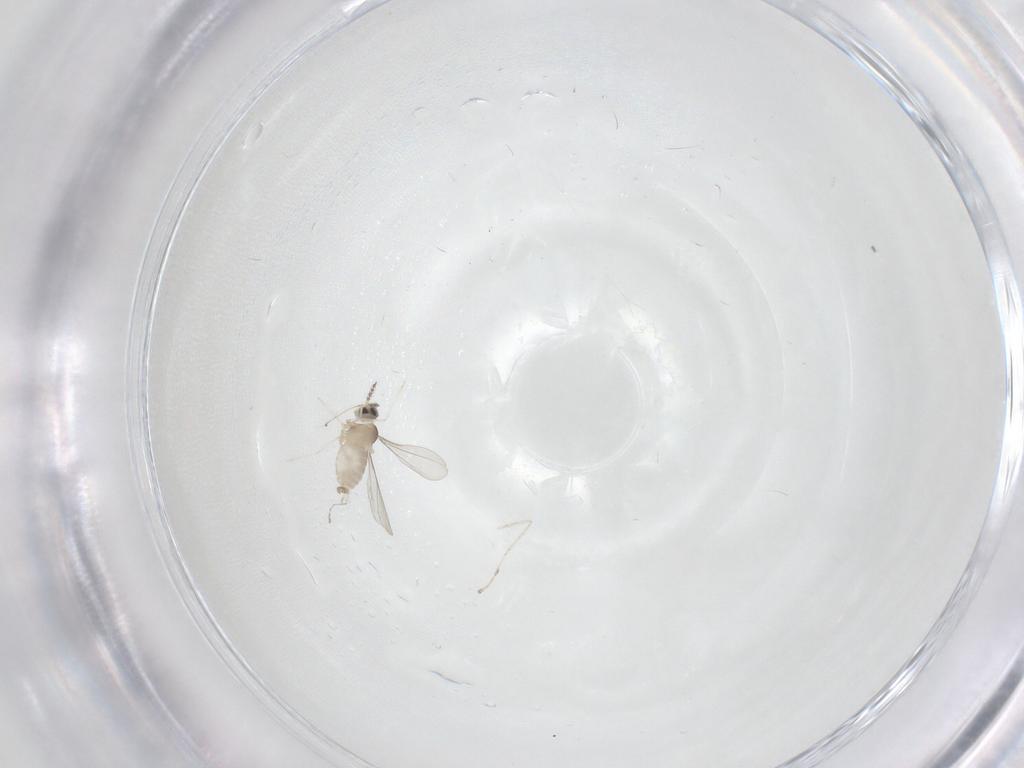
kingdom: Animalia
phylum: Arthropoda
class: Insecta
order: Diptera
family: Cecidomyiidae
